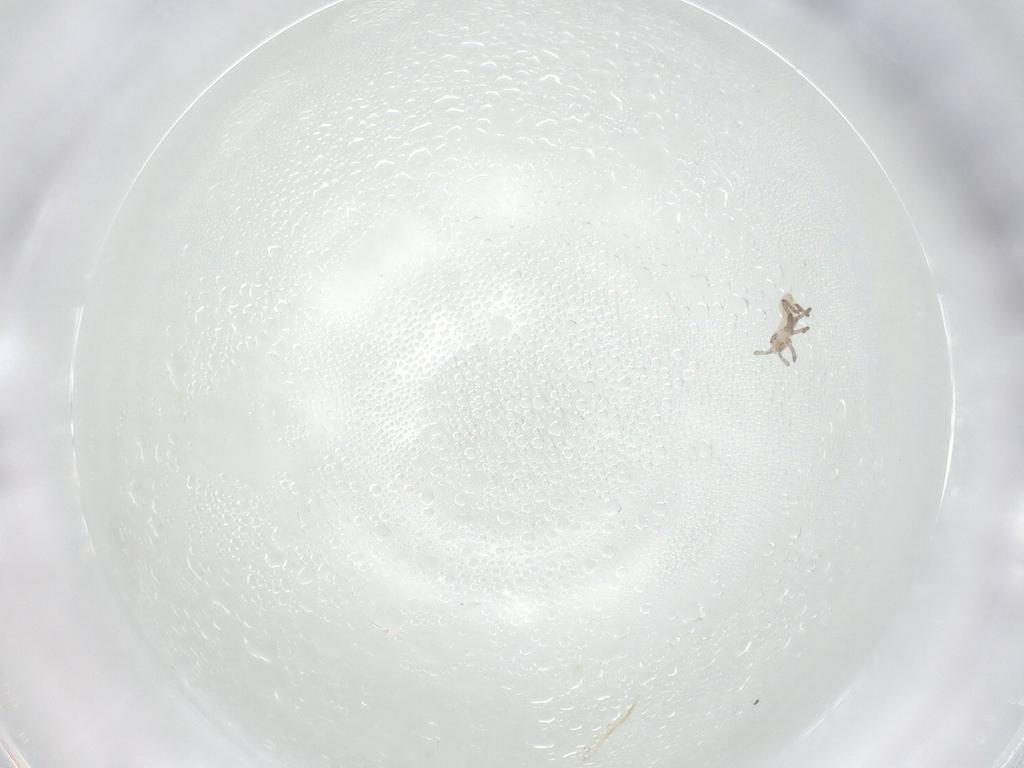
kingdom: Animalia
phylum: Arthropoda
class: Insecta
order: Hemiptera
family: Aphididae
